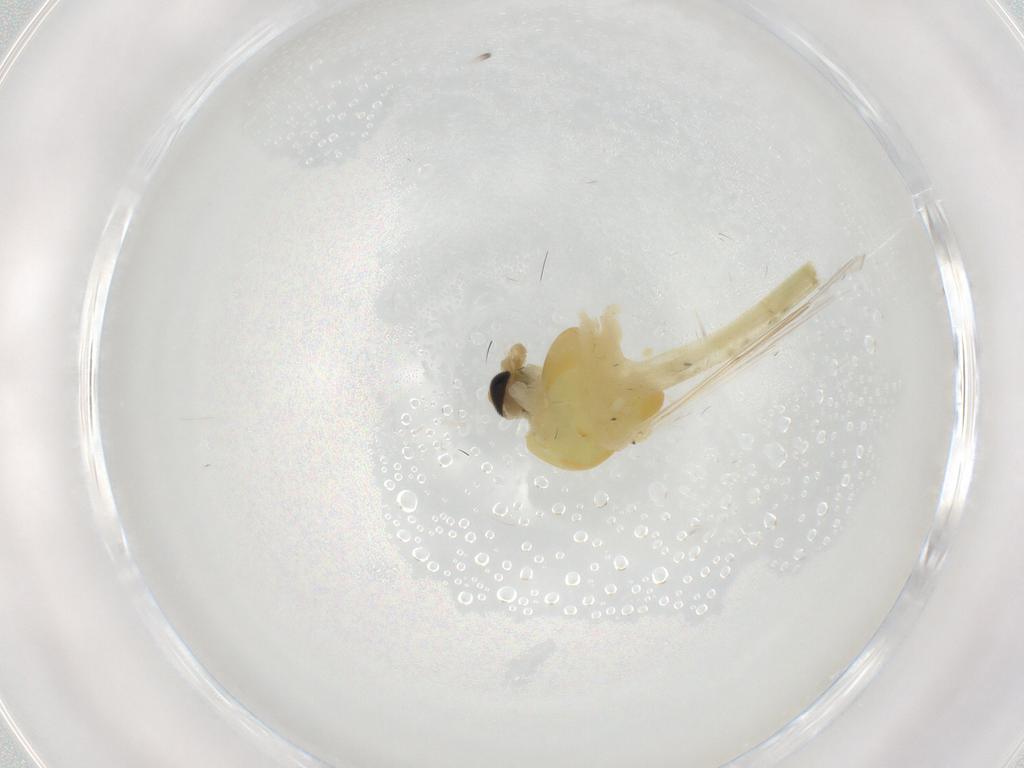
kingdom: Animalia
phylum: Arthropoda
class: Insecta
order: Diptera
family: Chironomidae
